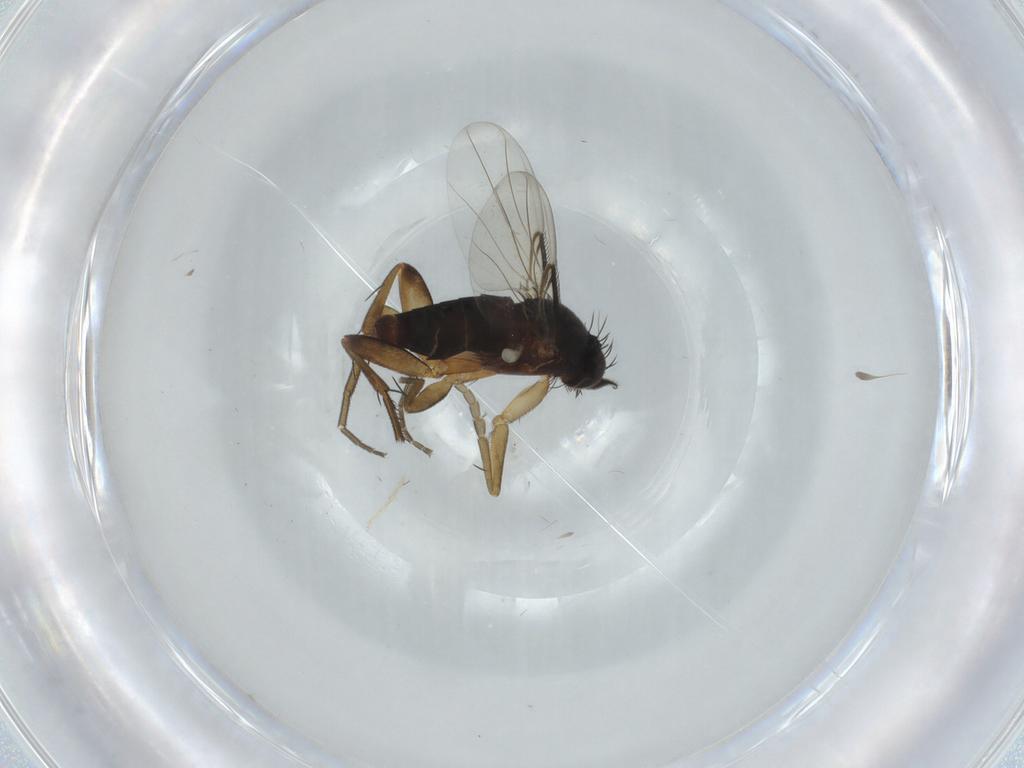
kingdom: Animalia
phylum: Arthropoda
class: Insecta
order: Diptera
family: Phoridae
